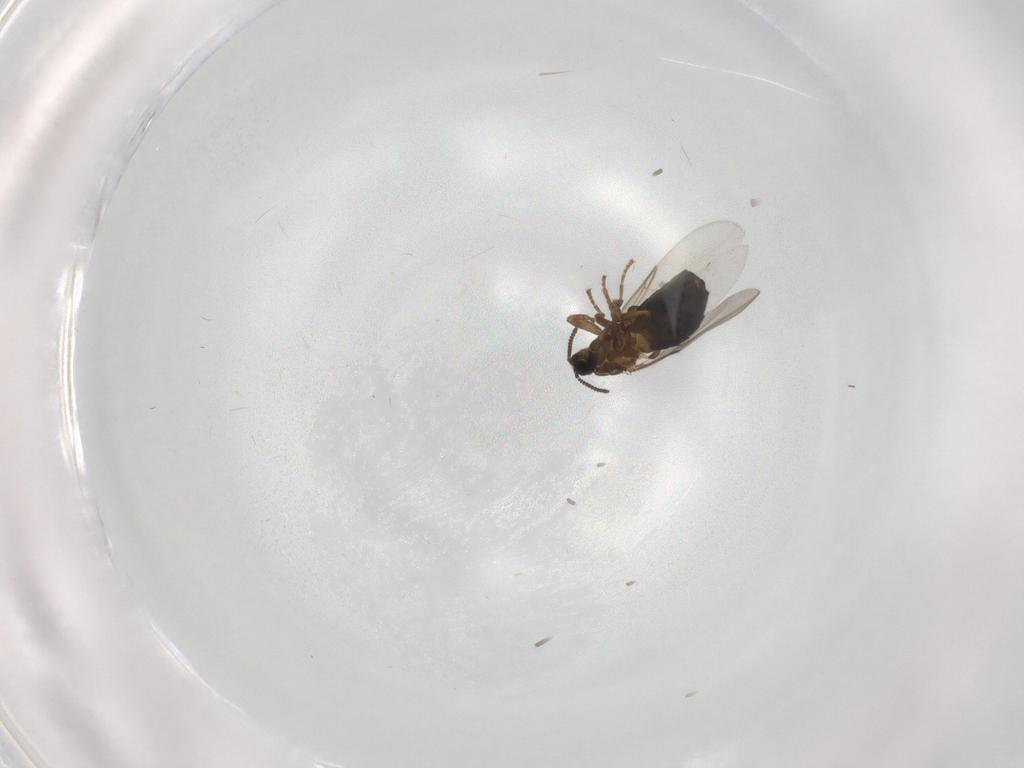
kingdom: Animalia
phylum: Arthropoda
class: Insecta
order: Diptera
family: Scatopsidae
